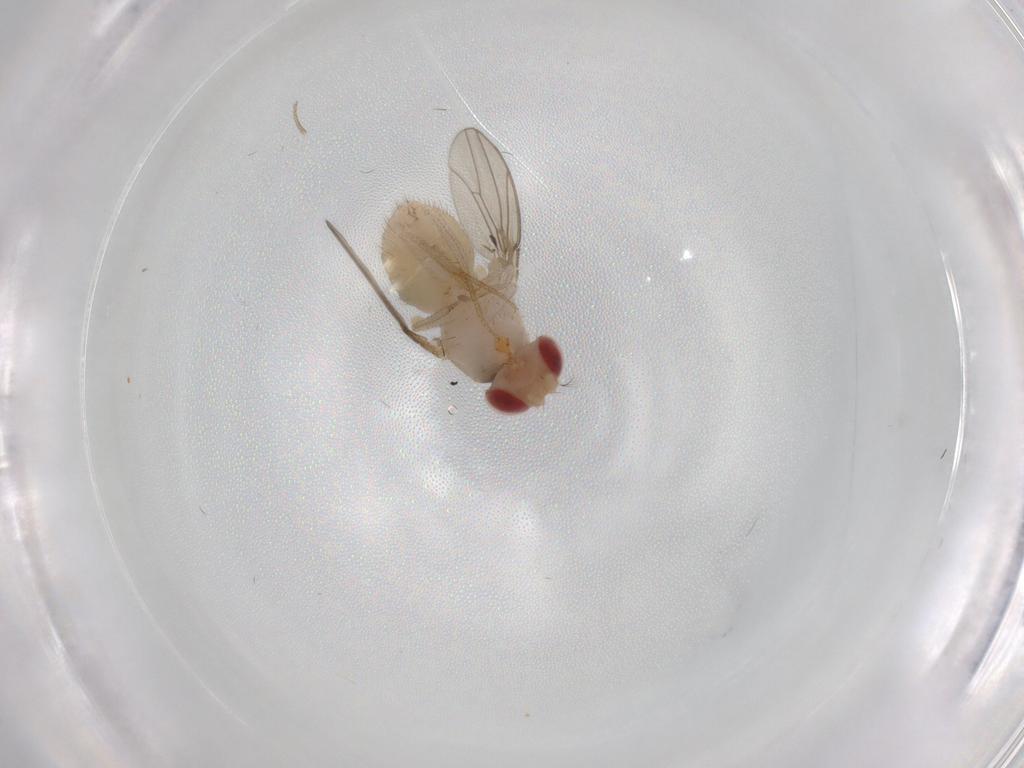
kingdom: Animalia
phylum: Arthropoda
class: Insecta
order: Diptera
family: Drosophilidae
